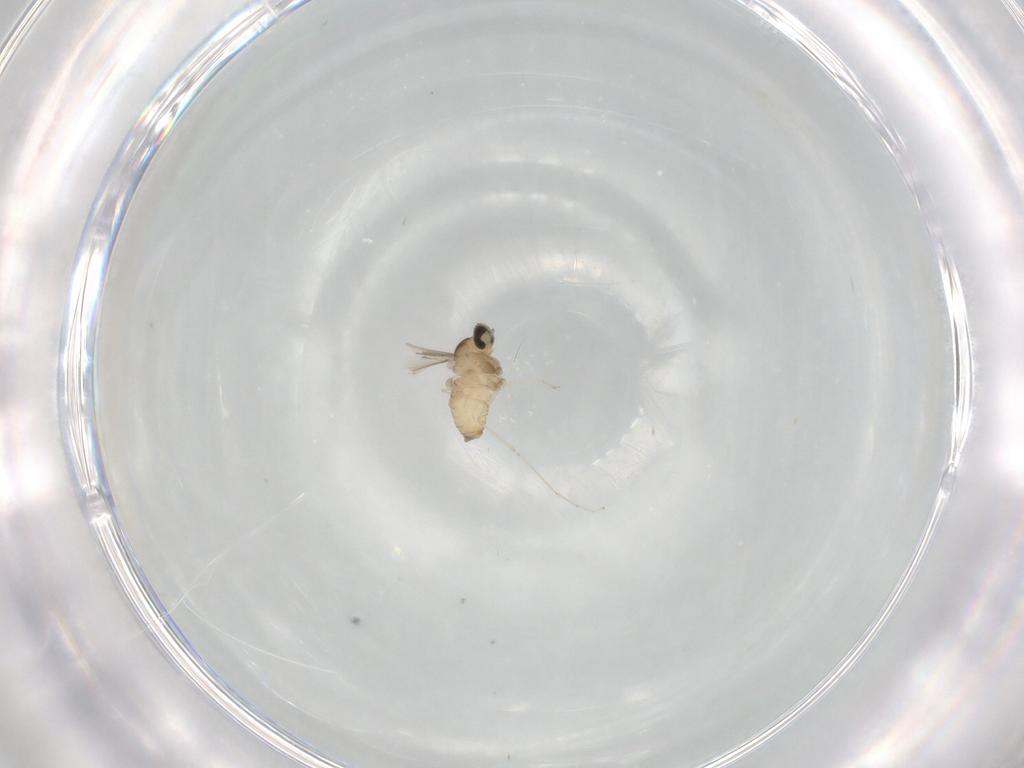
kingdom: Animalia
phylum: Arthropoda
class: Insecta
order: Diptera
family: Cecidomyiidae
